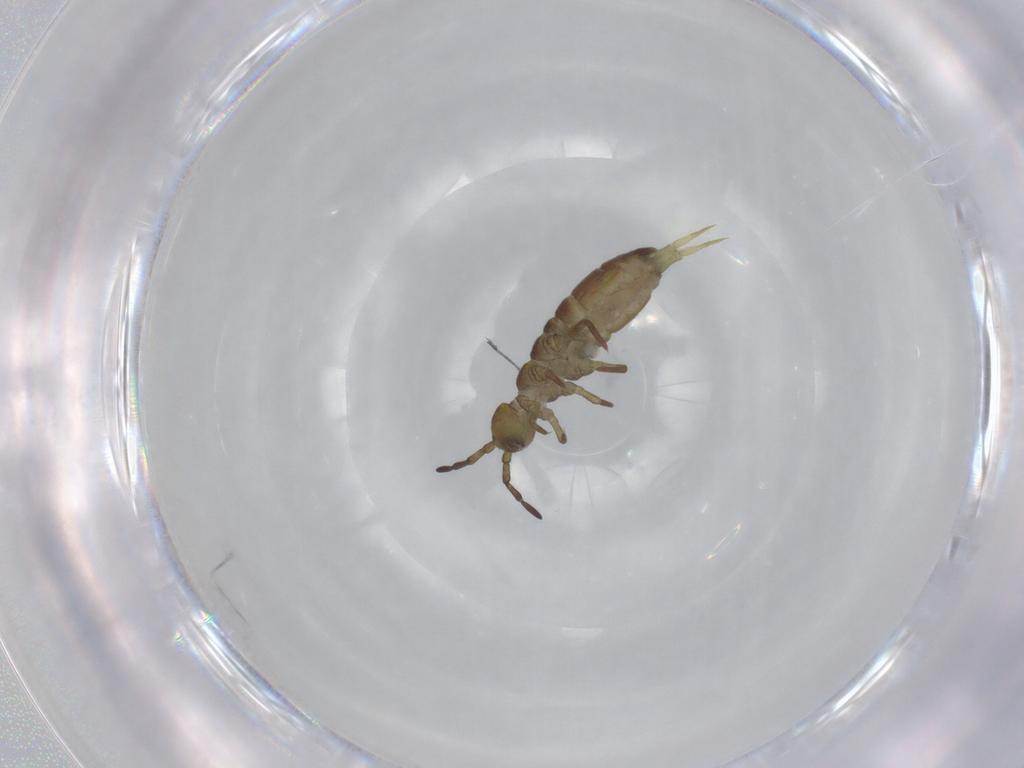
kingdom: Animalia
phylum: Arthropoda
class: Collembola
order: Entomobryomorpha
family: Isotomidae
